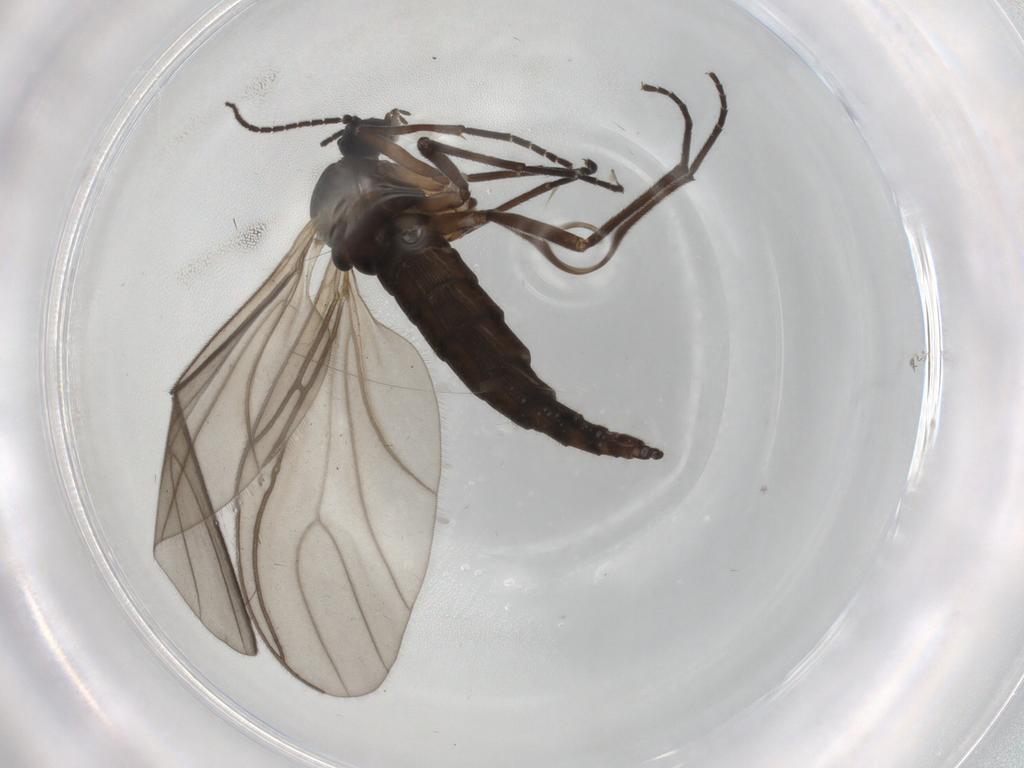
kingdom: Animalia
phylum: Arthropoda
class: Insecta
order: Diptera
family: Sciaridae
